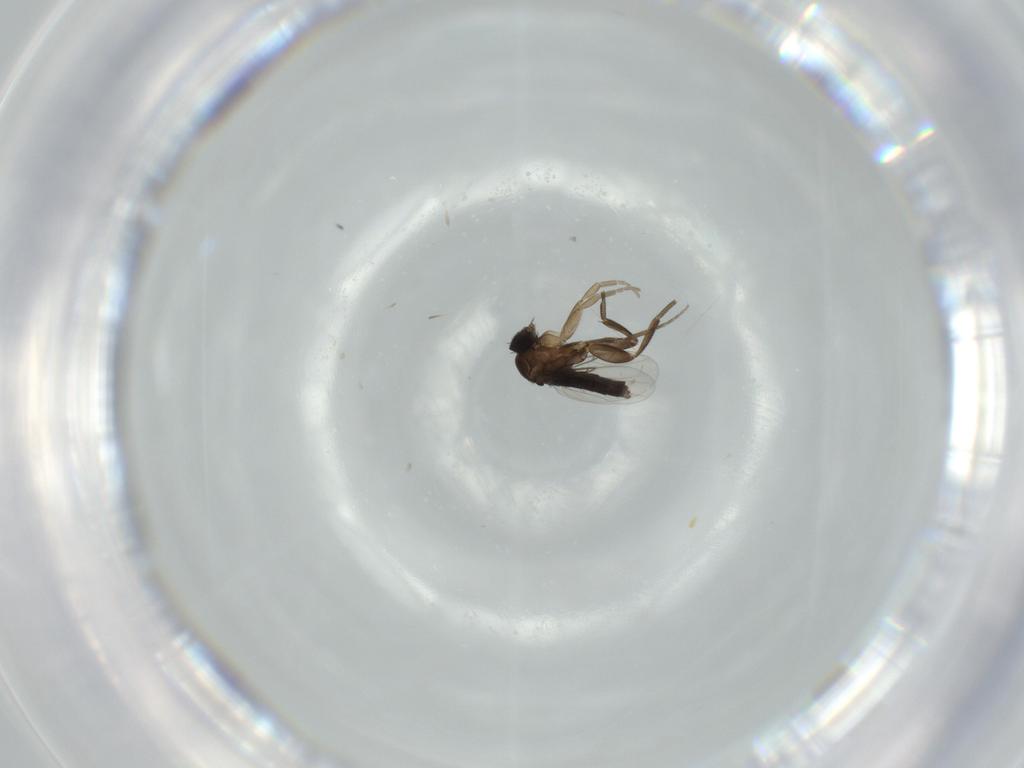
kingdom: Animalia
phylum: Arthropoda
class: Insecta
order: Diptera
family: Phoridae
